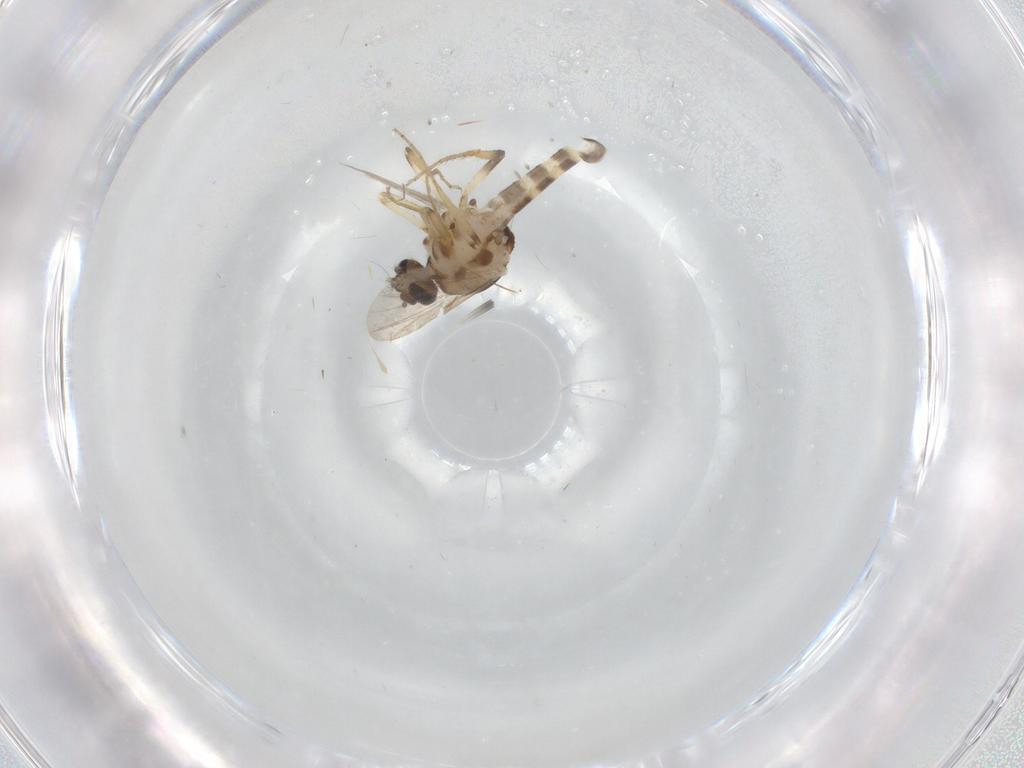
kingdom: Animalia
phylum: Arthropoda
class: Insecta
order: Diptera
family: Ceratopogonidae
